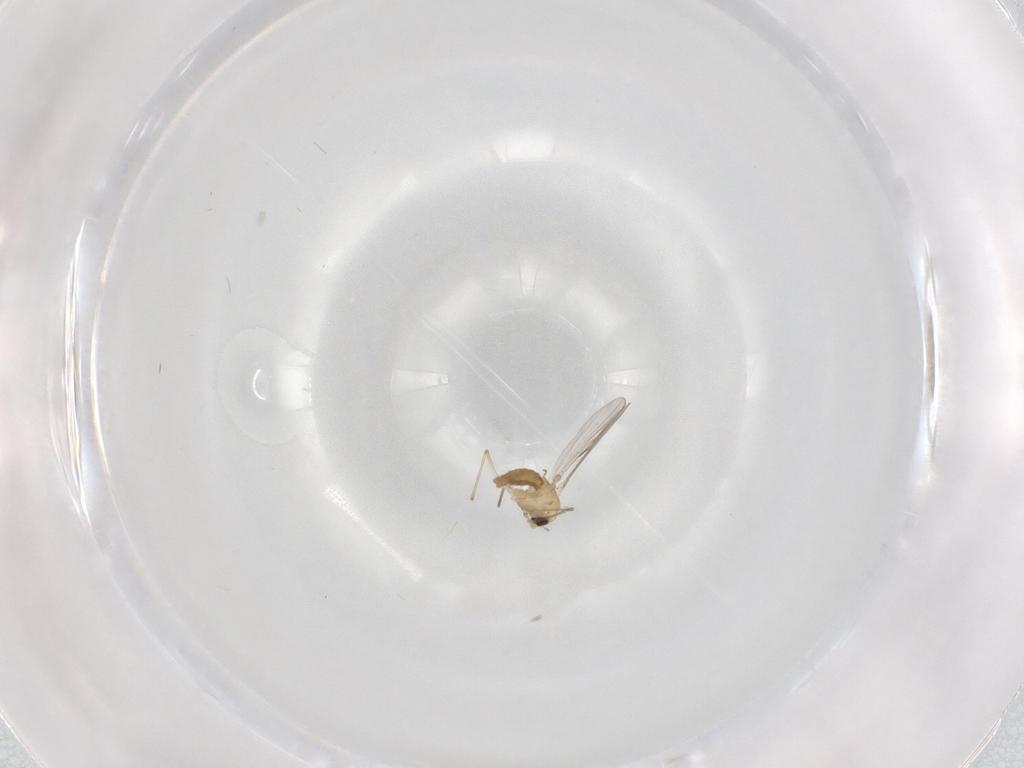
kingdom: Animalia
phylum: Arthropoda
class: Insecta
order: Diptera
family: Chironomidae
